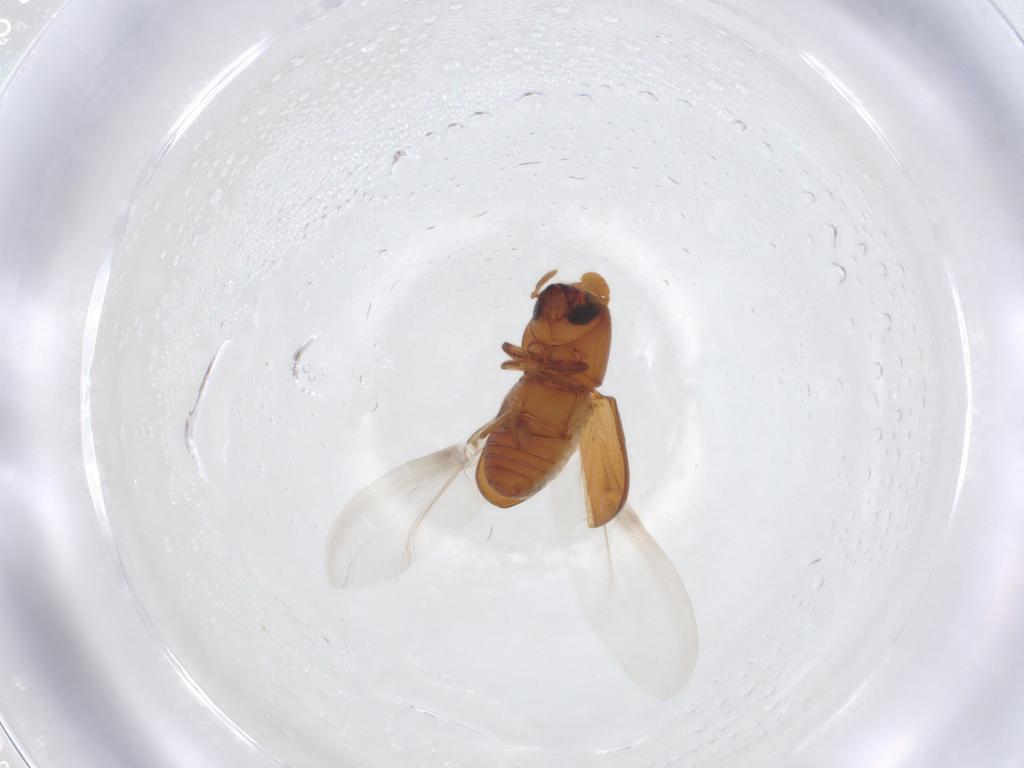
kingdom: Animalia
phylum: Arthropoda
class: Insecta
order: Coleoptera
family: Curculionidae
